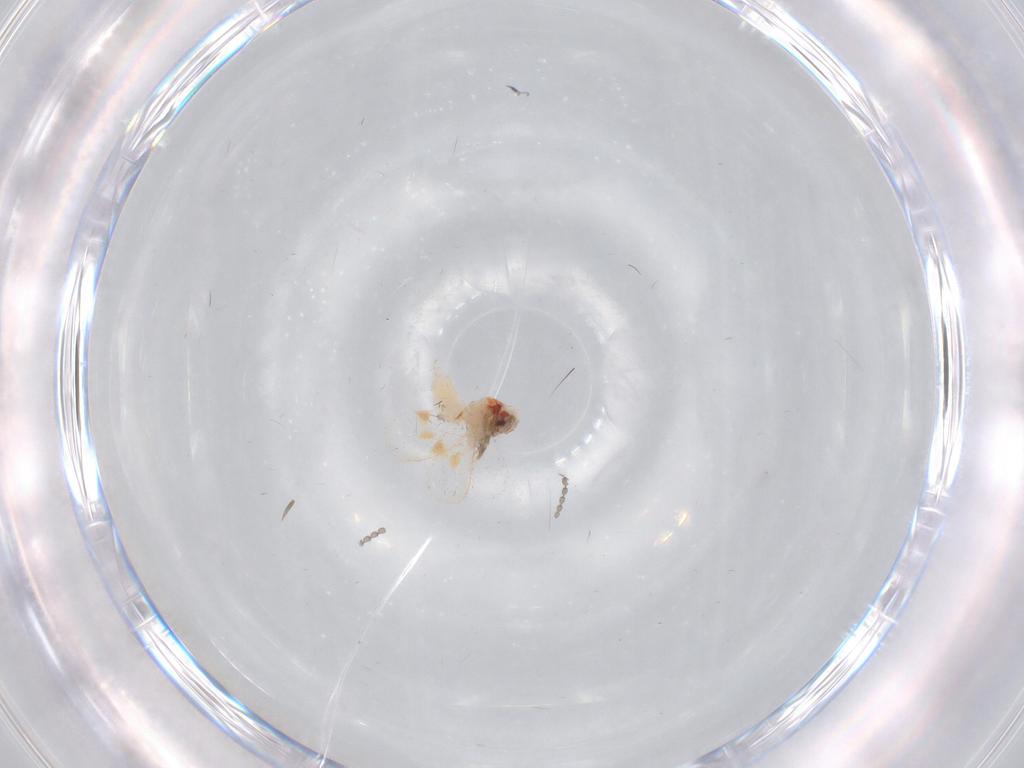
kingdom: Animalia
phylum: Arthropoda
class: Insecta
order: Hemiptera
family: Aleyrodidae
